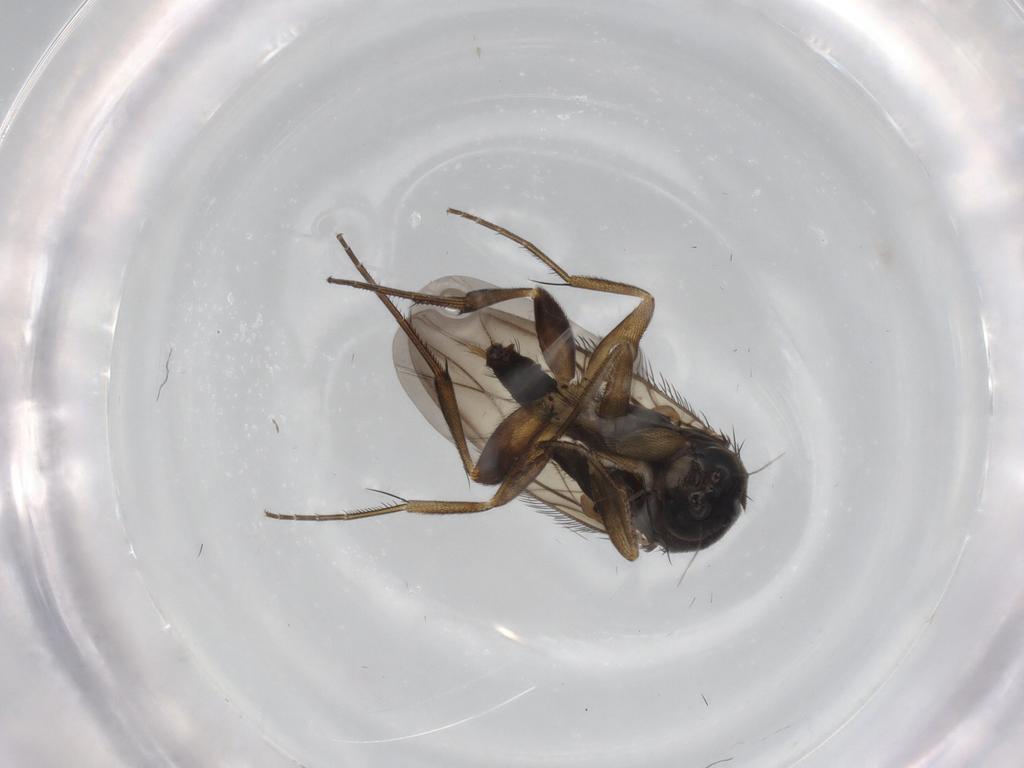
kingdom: Animalia
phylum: Arthropoda
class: Insecta
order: Diptera
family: Phoridae
